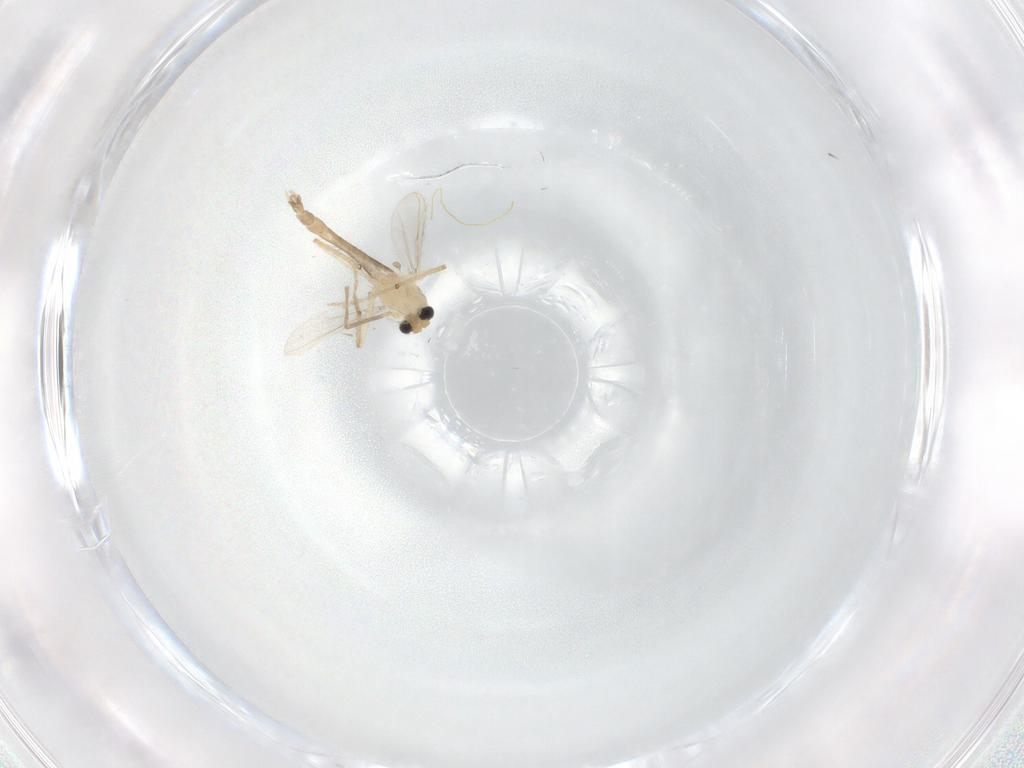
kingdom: Animalia
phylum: Arthropoda
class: Insecta
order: Diptera
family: Chironomidae
